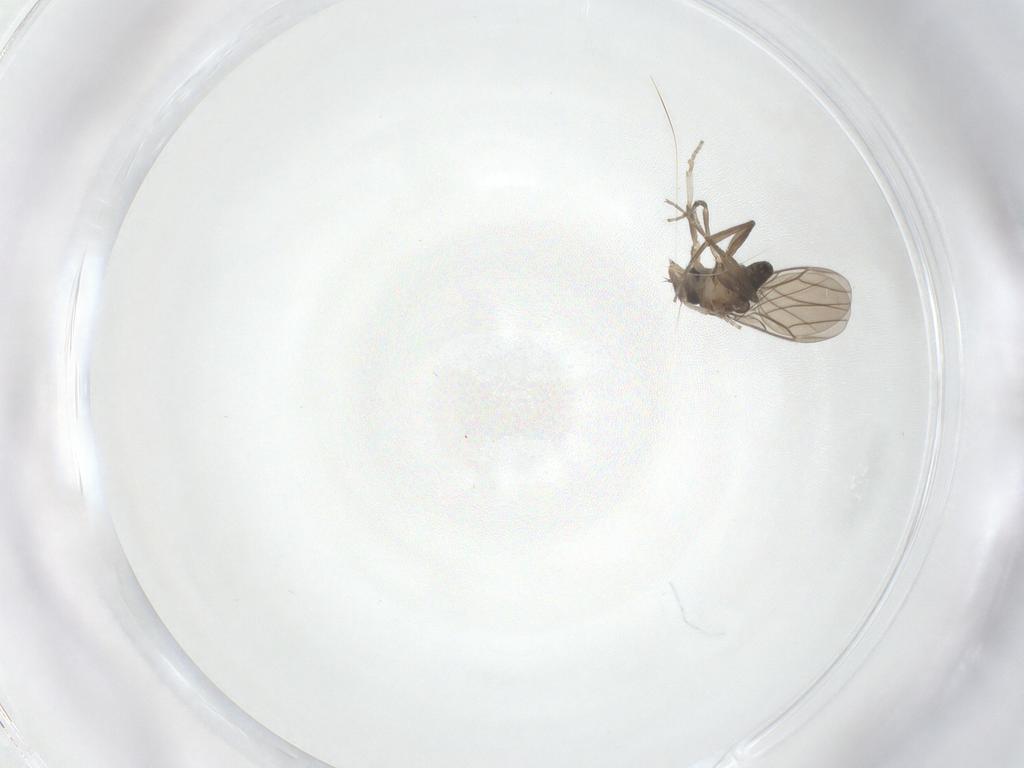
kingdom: Animalia
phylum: Arthropoda
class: Insecta
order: Diptera
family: Phoridae
